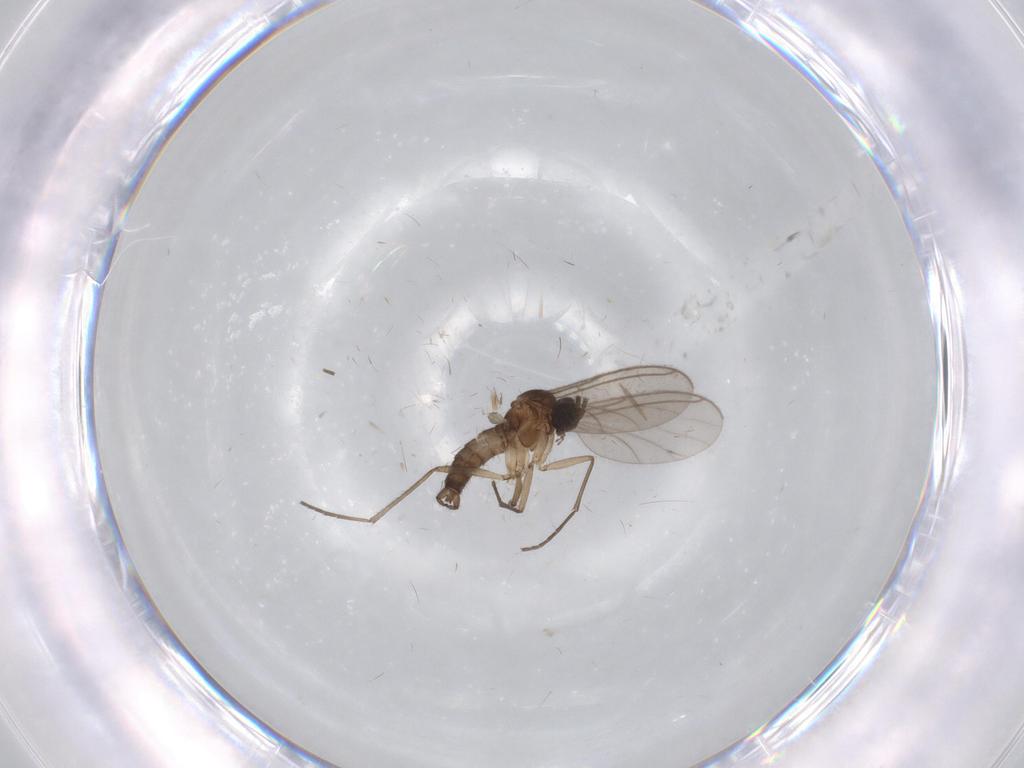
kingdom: Animalia
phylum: Arthropoda
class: Insecta
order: Diptera
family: Sciaridae
